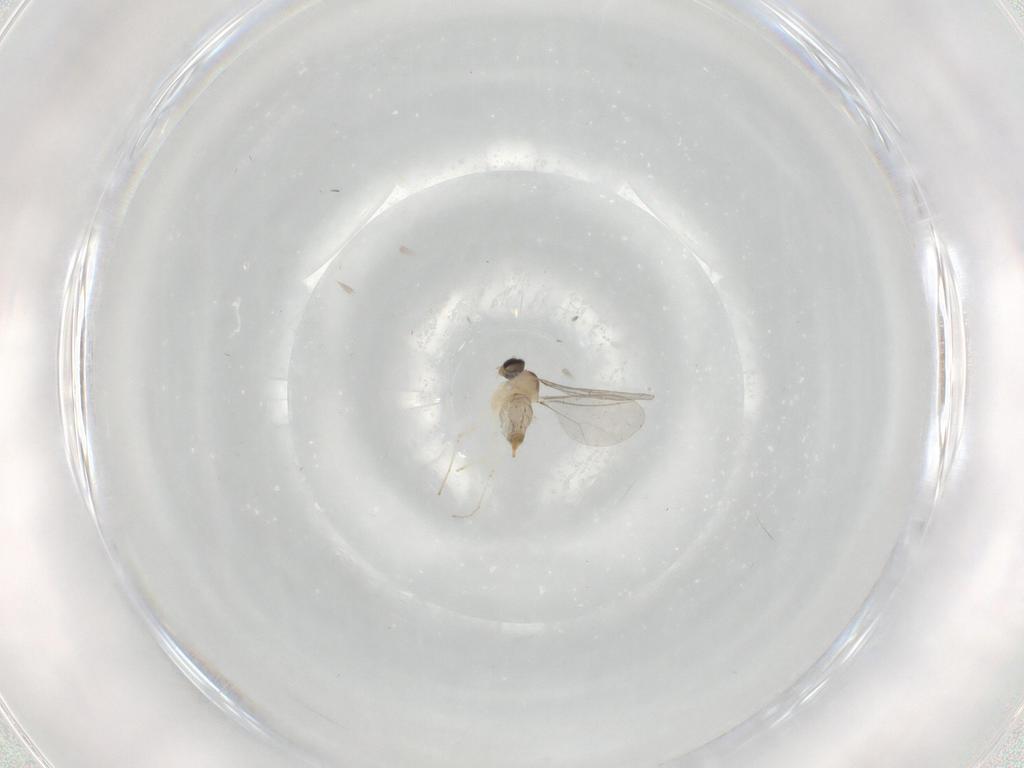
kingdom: Animalia
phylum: Arthropoda
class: Insecta
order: Diptera
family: Cecidomyiidae
